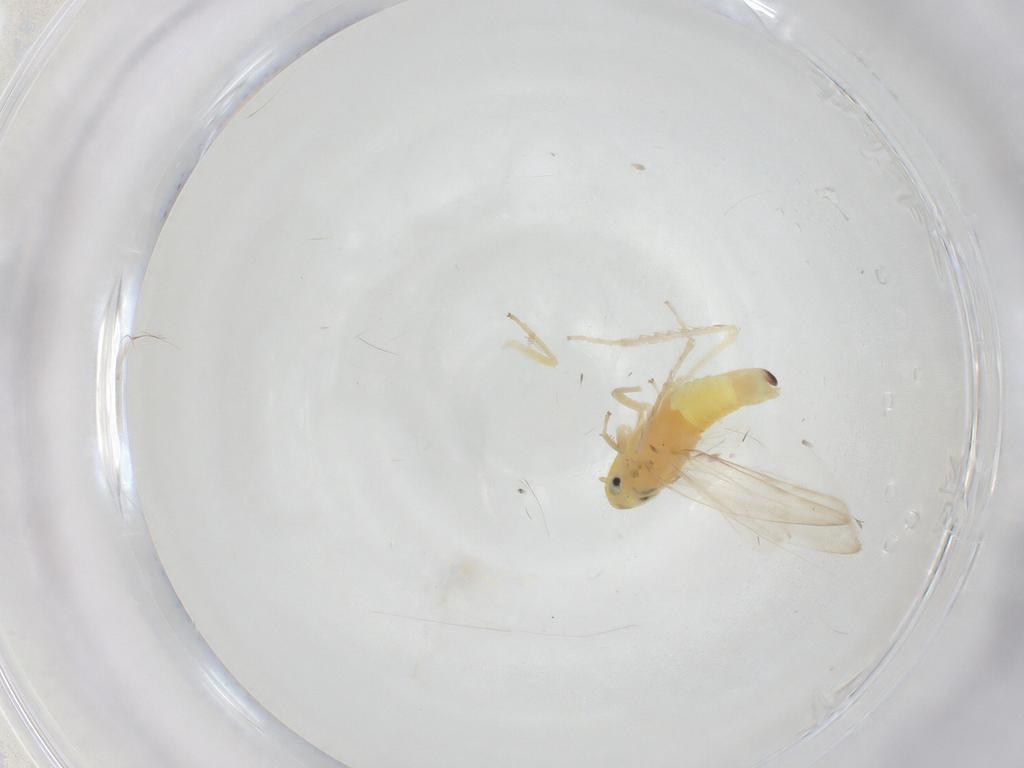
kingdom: Animalia
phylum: Arthropoda
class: Insecta
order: Hemiptera
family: Cicadellidae
